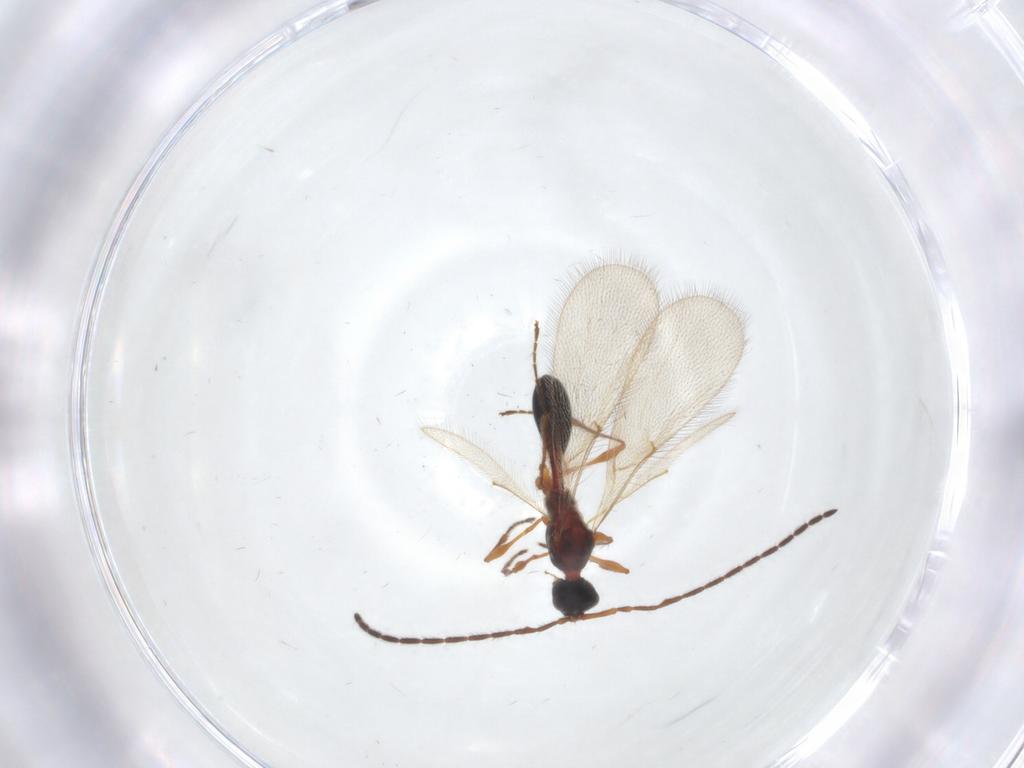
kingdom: Animalia
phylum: Arthropoda
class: Insecta
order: Hymenoptera
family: Diapriidae
